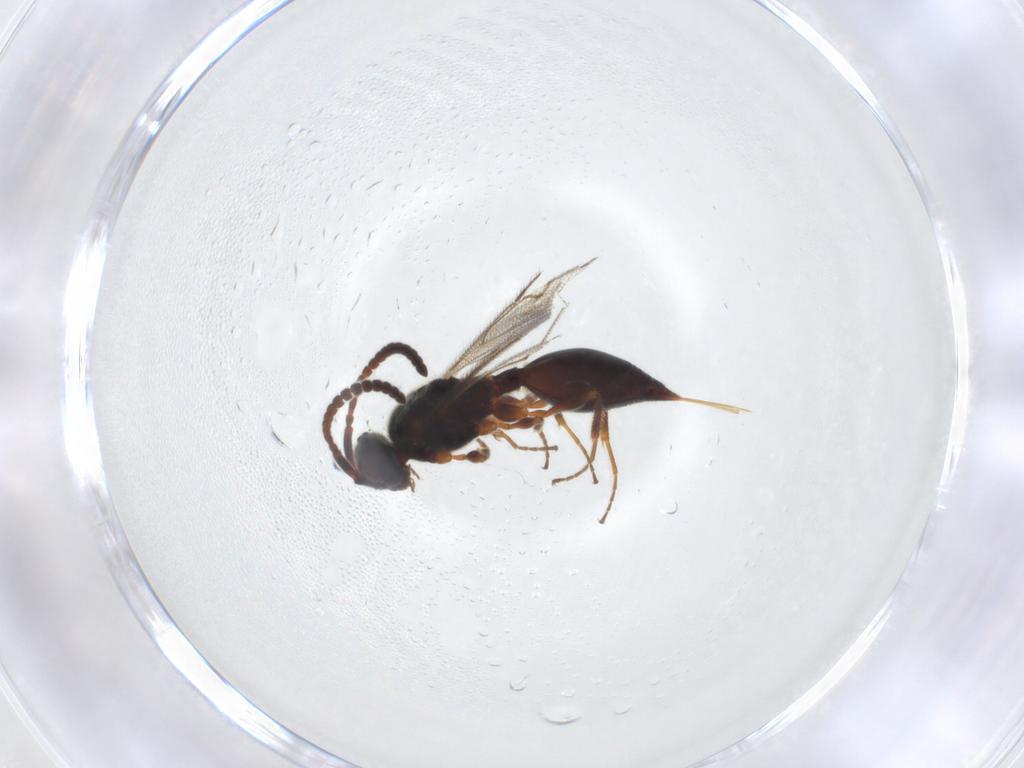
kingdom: Animalia
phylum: Arthropoda
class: Insecta
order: Hymenoptera
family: Diapriidae
